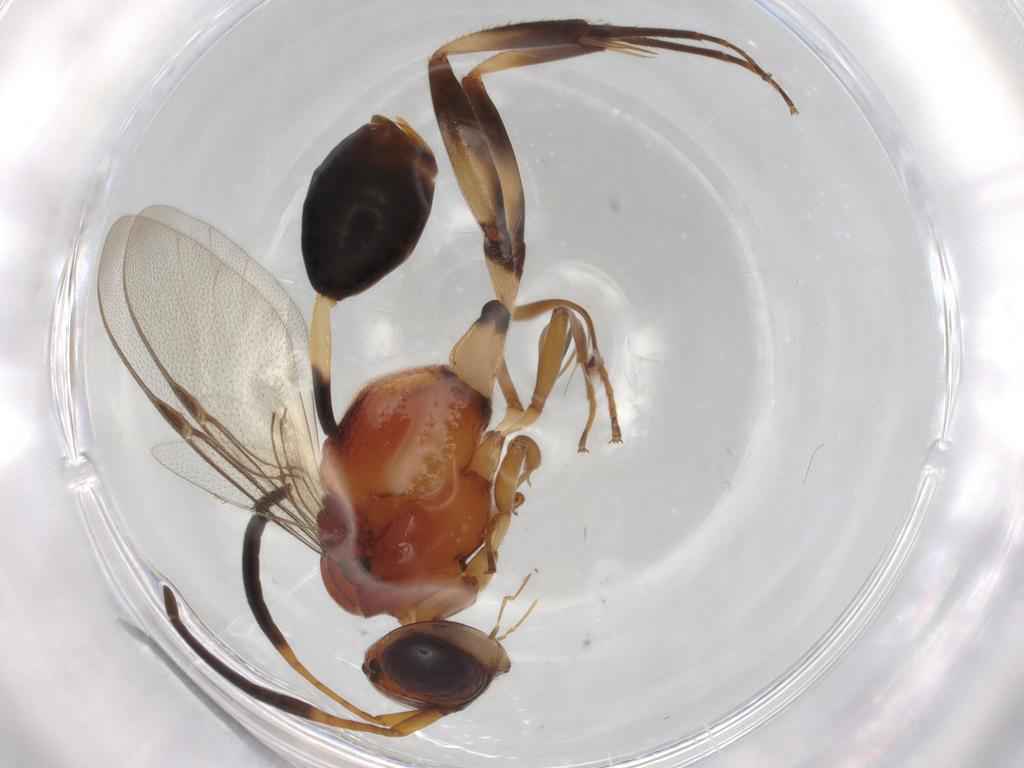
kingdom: Animalia
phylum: Arthropoda
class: Insecta
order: Hymenoptera
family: Evaniidae
